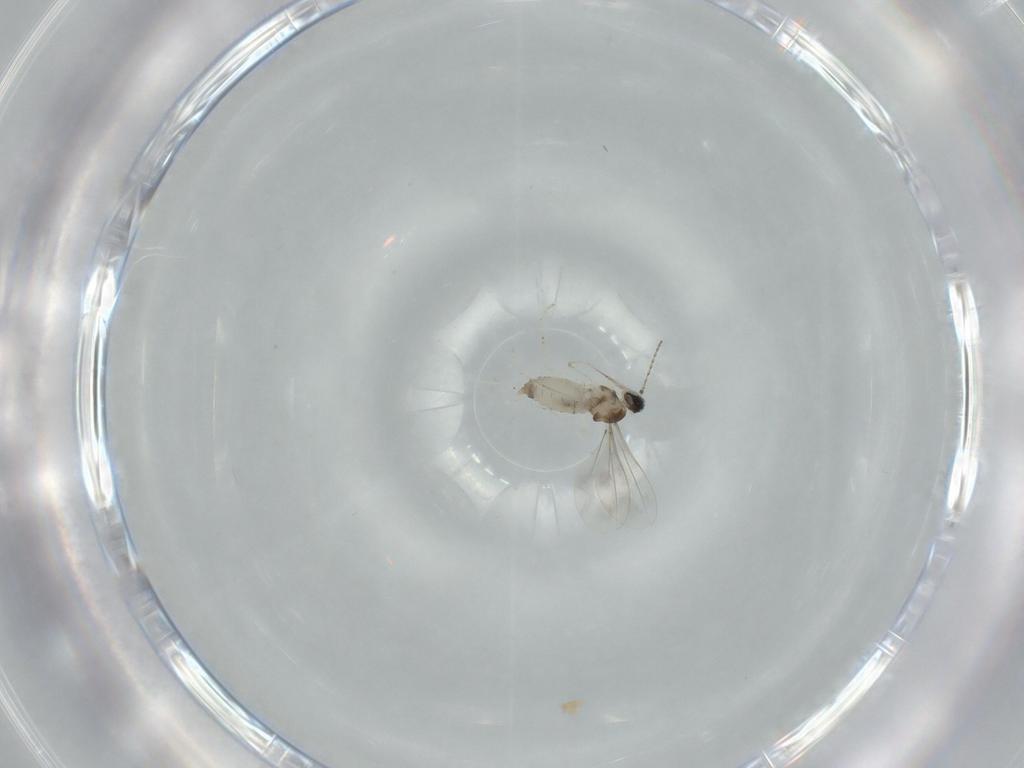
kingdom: Animalia
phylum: Arthropoda
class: Insecta
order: Diptera
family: Cecidomyiidae
